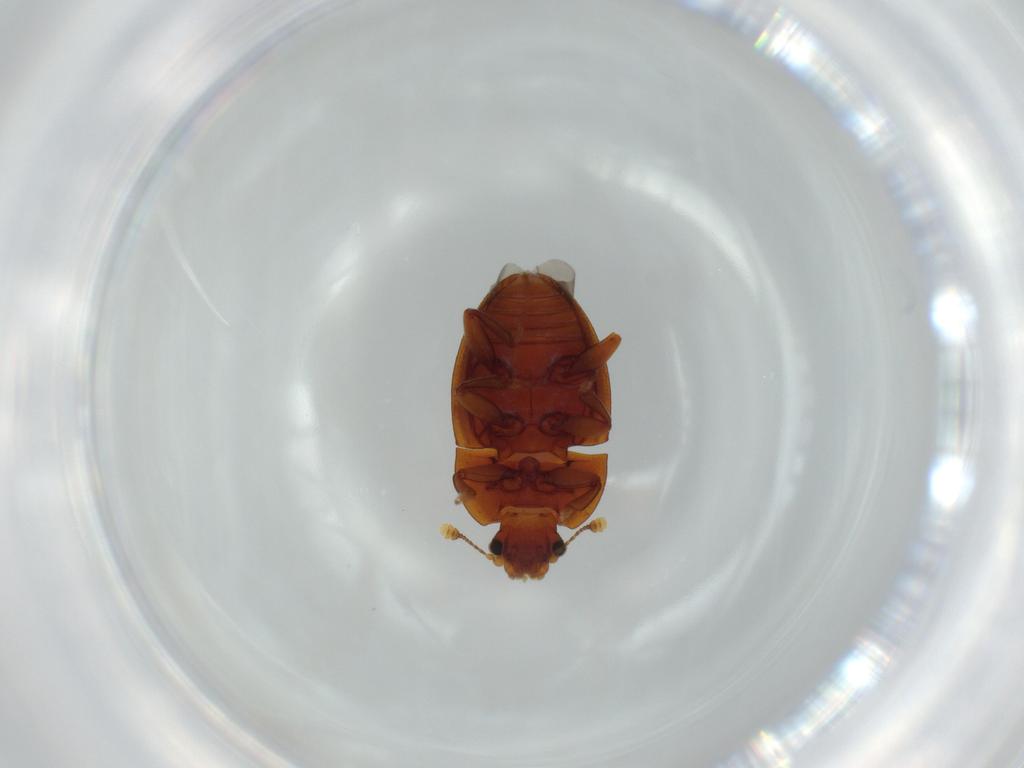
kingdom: Animalia
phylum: Arthropoda
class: Insecta
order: Coleoptera
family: Nitidulidae
